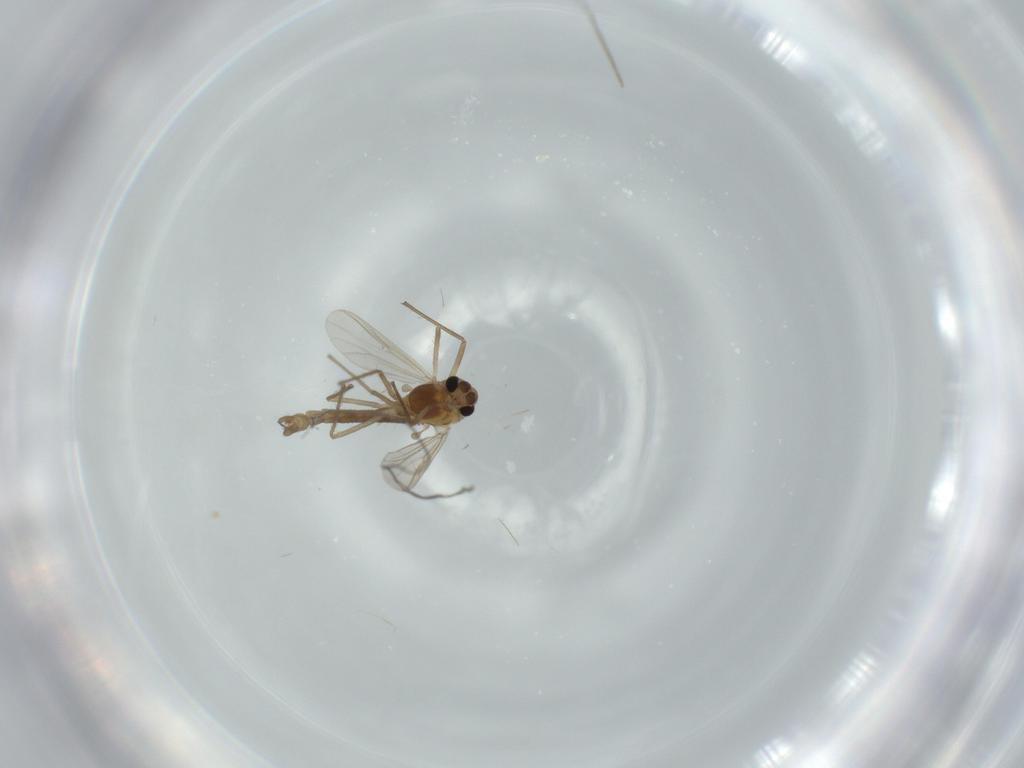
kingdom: Animalia
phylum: Arthropoda
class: Insecta
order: Diptera
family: Chironomidae
